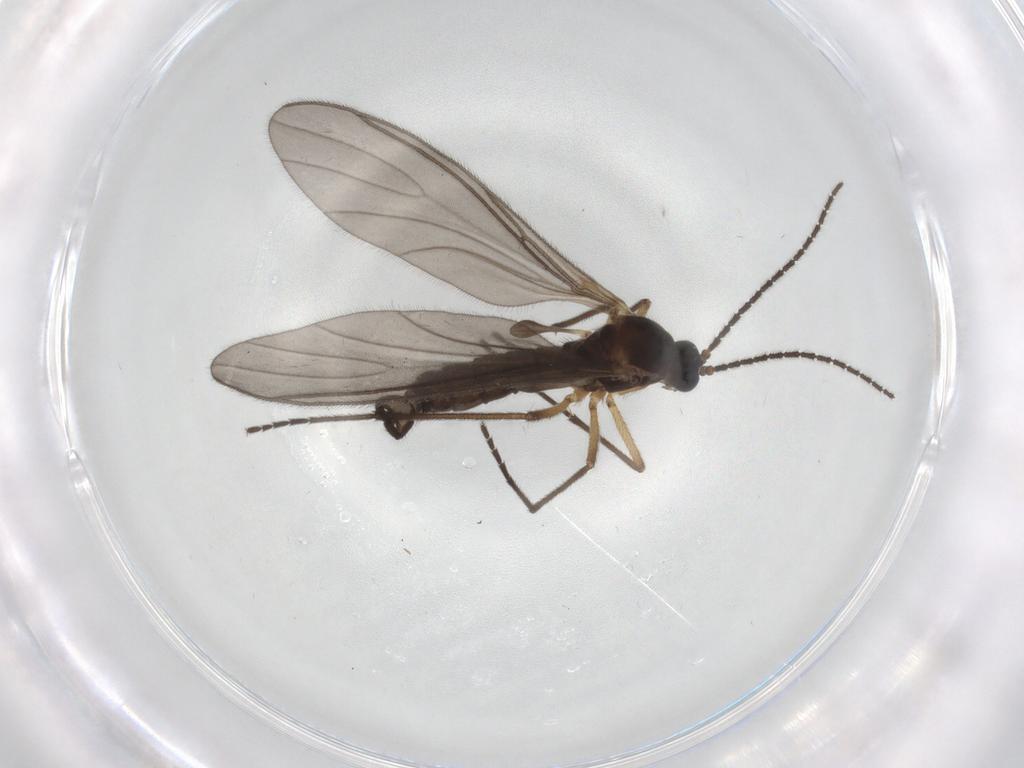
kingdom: Animalia
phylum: Arthropoda
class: Insecta
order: Diptera
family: Sciaridae
